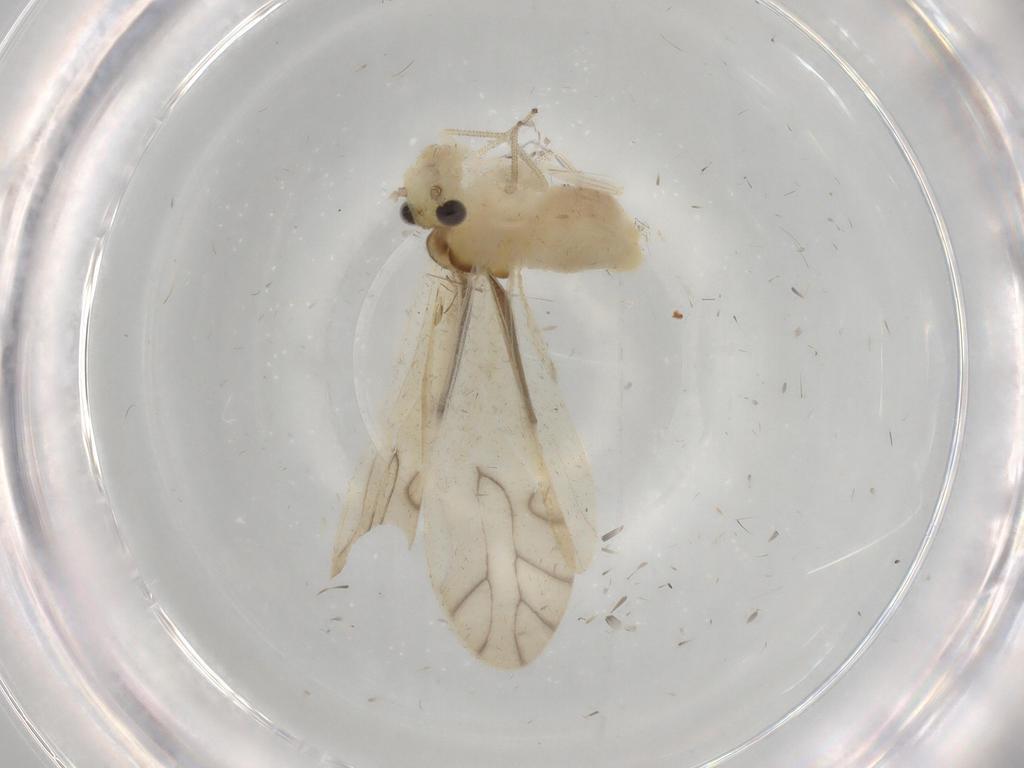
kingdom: Animalia
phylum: Arthropoda
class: Insecta
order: Psocodea
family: Caeciliusidae
